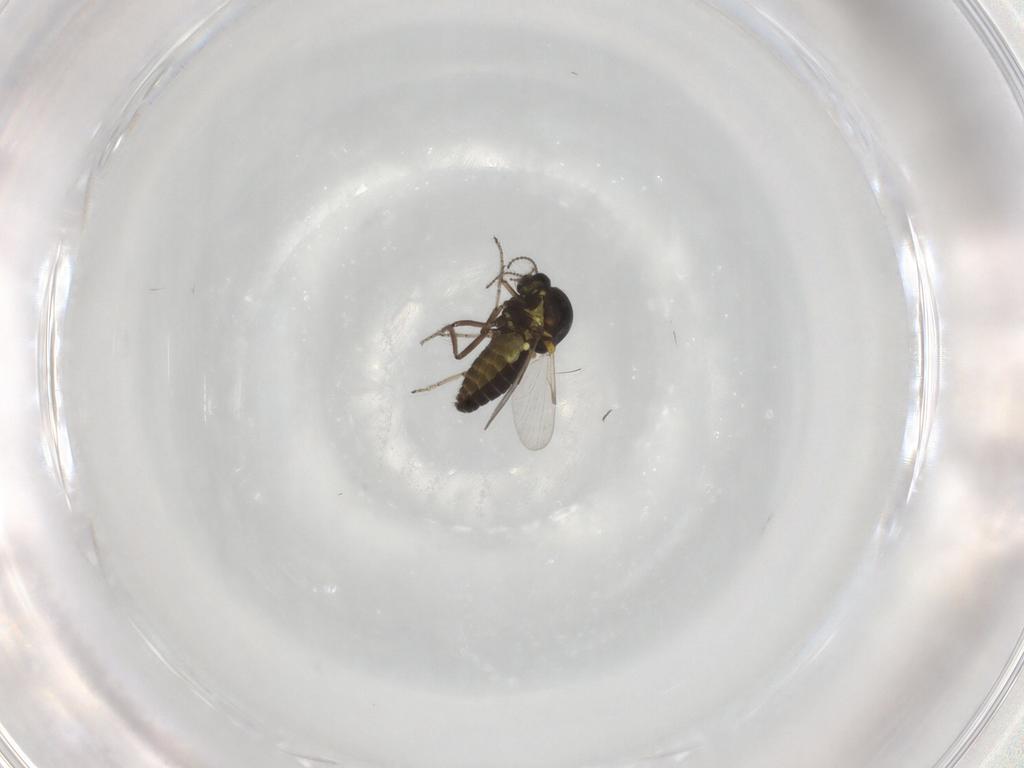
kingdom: Animalia
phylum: Arthropoda
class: Insecta
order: Diptera
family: Ceratopogonidae
